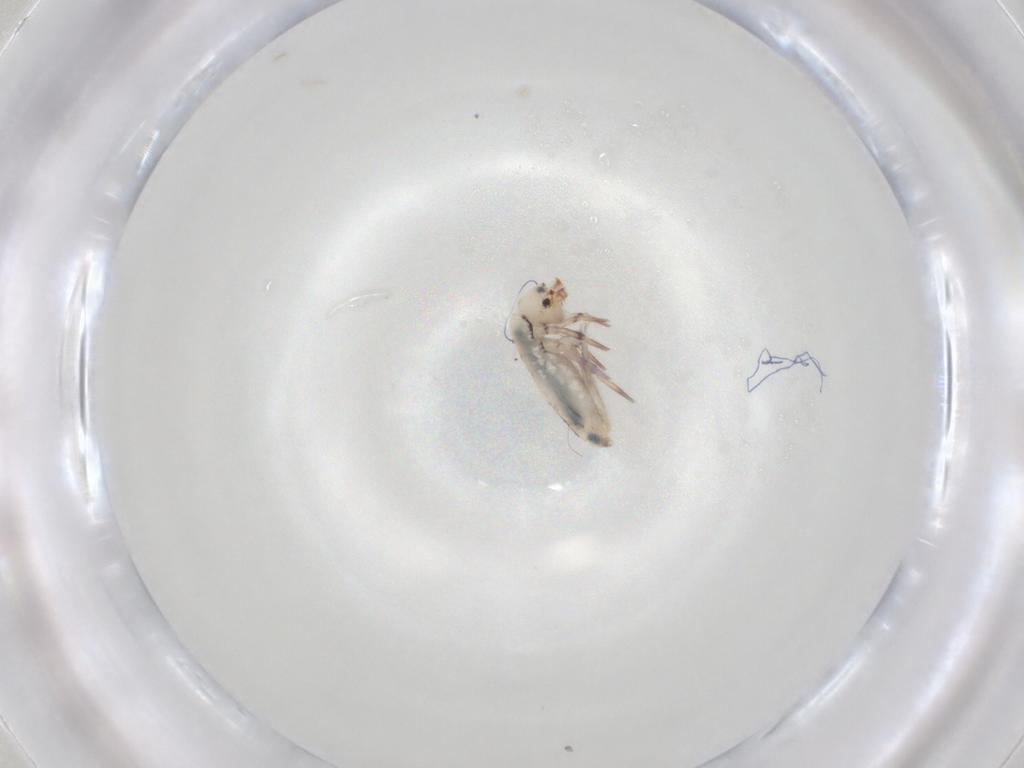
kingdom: Animalia
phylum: Arthropoda
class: Collembola
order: Entomobryomorpha
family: Entomobryidae
